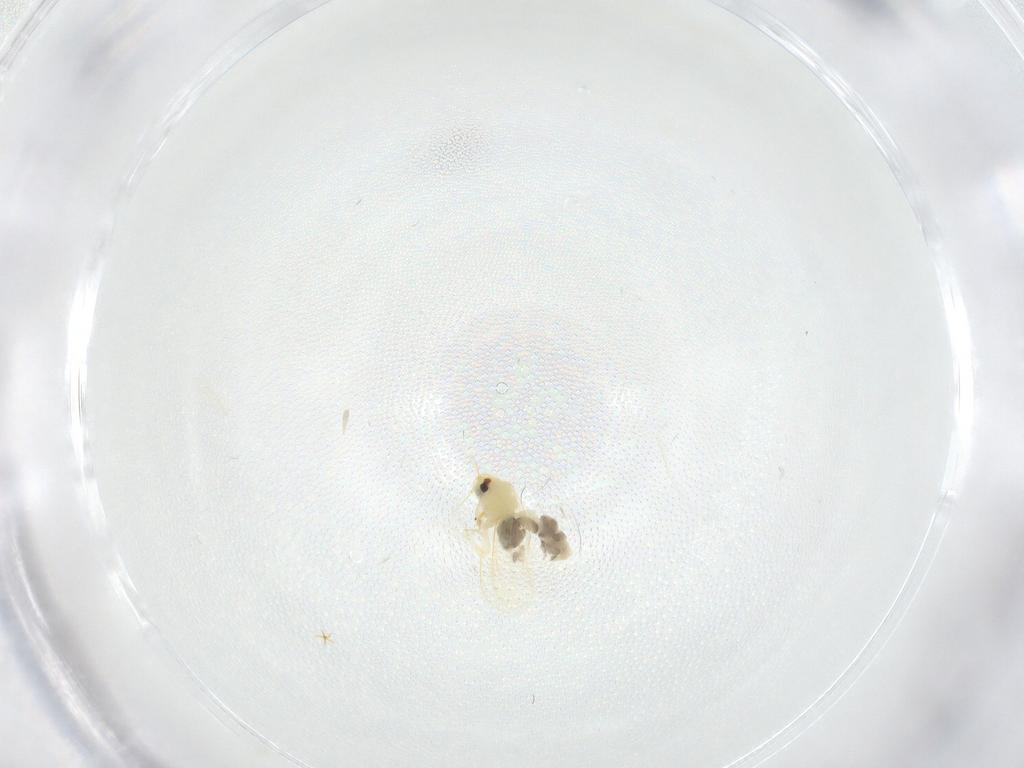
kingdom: Animalia
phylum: Arthropoda
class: Insecta
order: Hemiptera
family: Aleyrodidae
